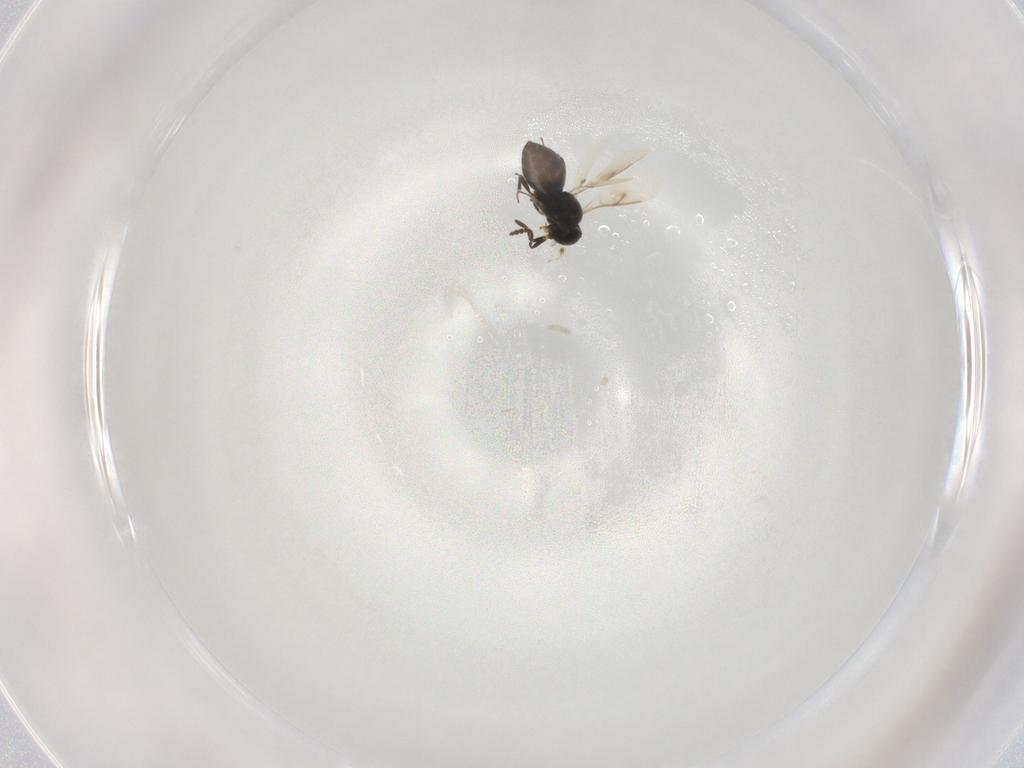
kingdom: Animalia
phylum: Arthropoda
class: Insecta
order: Hymenoptera
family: Scelionidae
